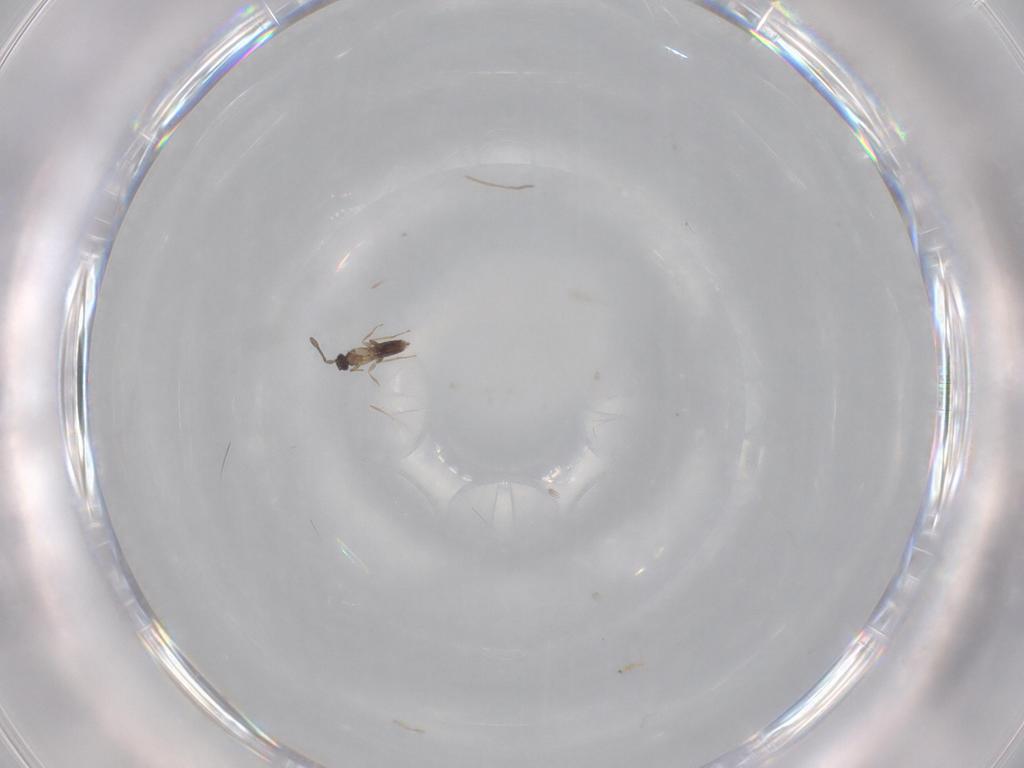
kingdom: Animalia
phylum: Arthropoda
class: Insecta
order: Hymenoptera
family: Mymaridae
